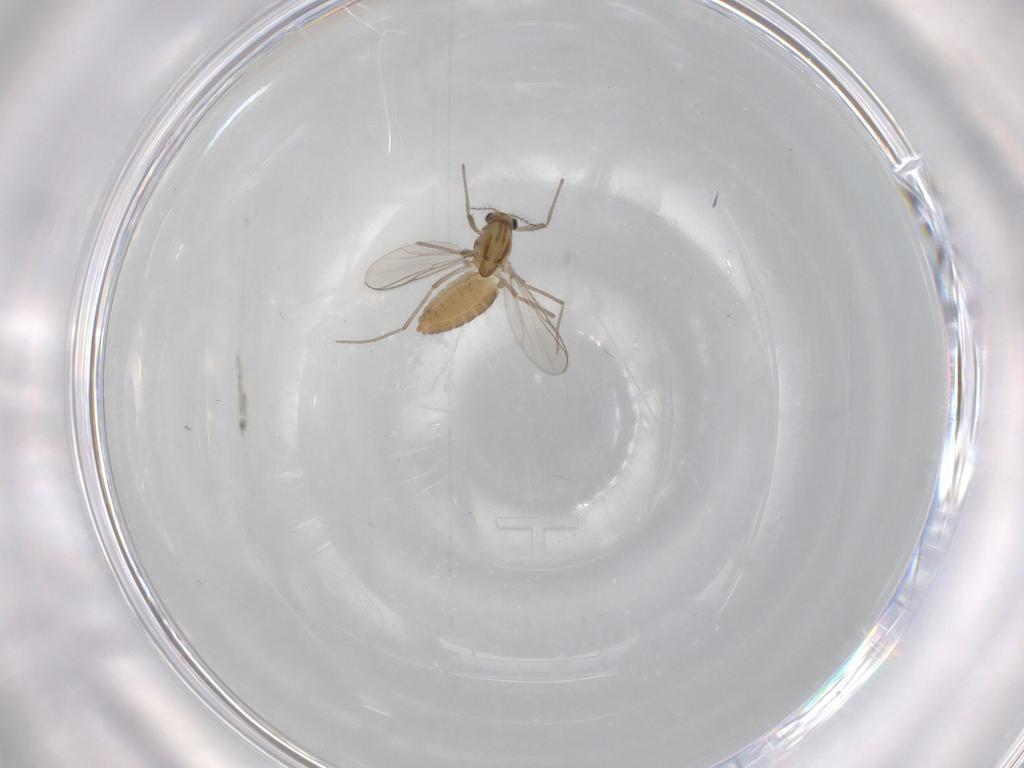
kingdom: Animalia
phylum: Arthropoda
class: Insecta
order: Diptera
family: Chironomidae
